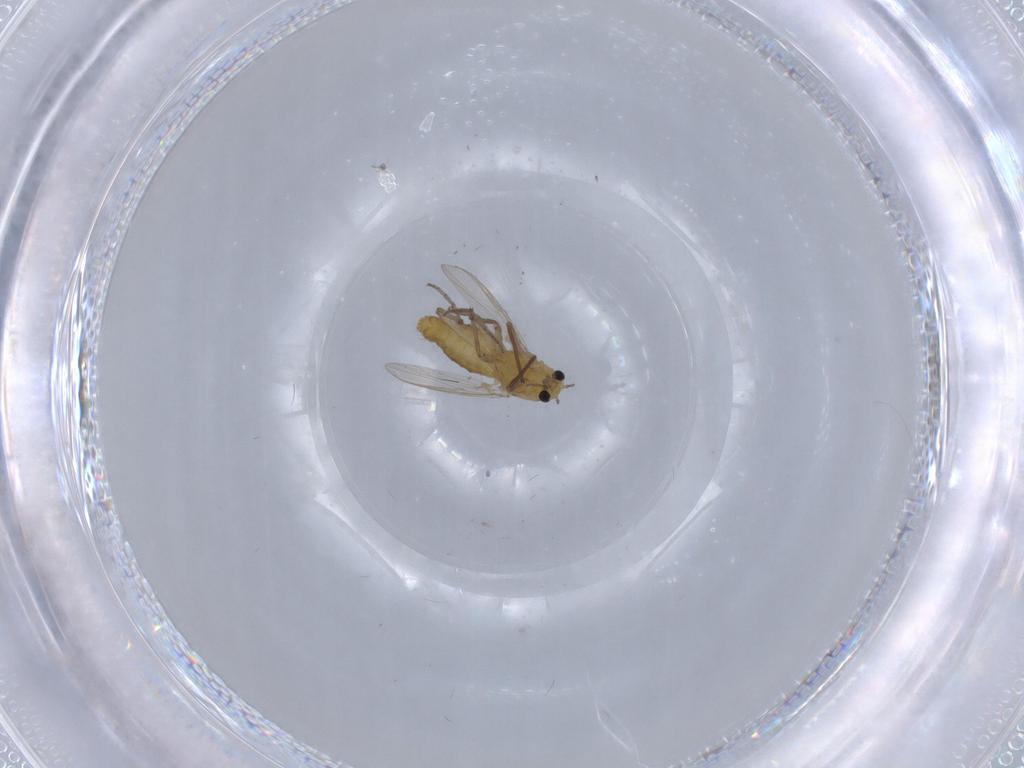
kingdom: Animalia
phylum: Arthropoda
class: Insecta
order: Diptera
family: Chironomidae
